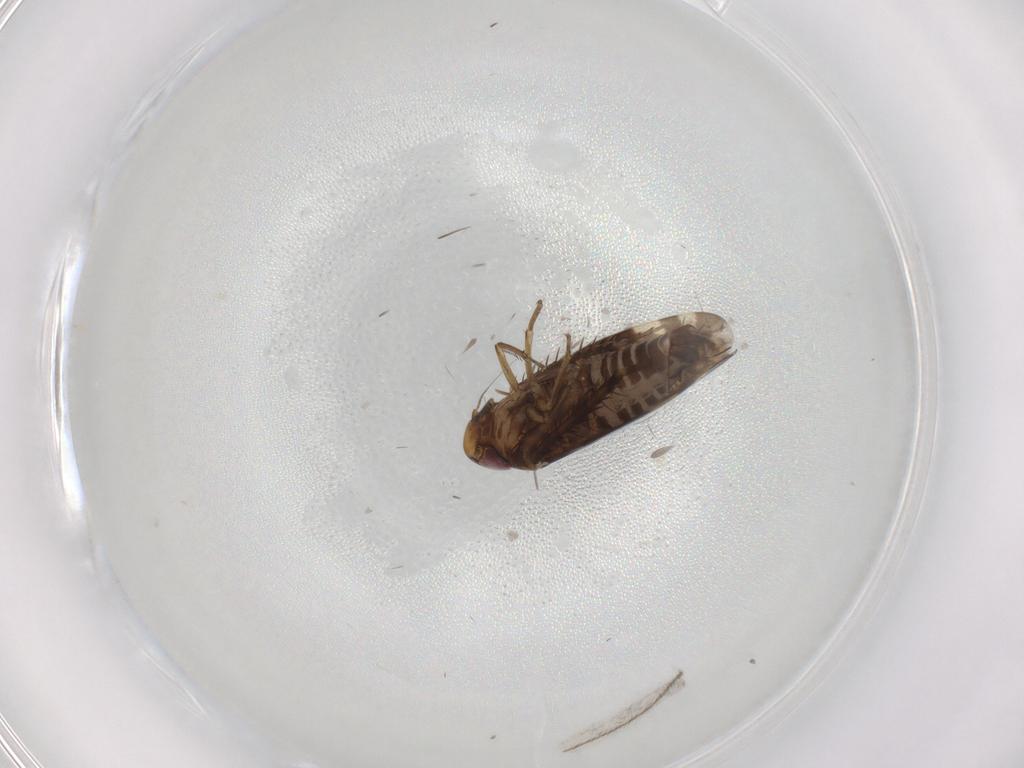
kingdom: Animalia
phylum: Arthropoda
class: Insecta
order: Hemiptera
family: Cicadellidae
